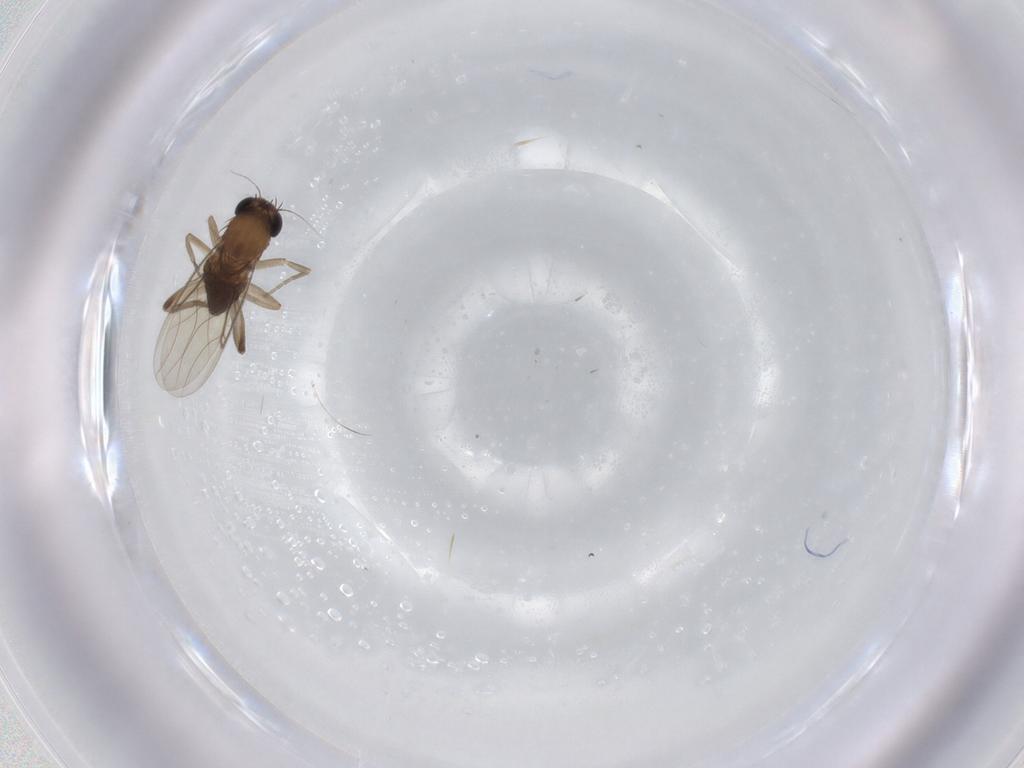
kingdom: Animalia
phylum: Arthropoda
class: Insecta
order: Diptera
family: Phoridae
